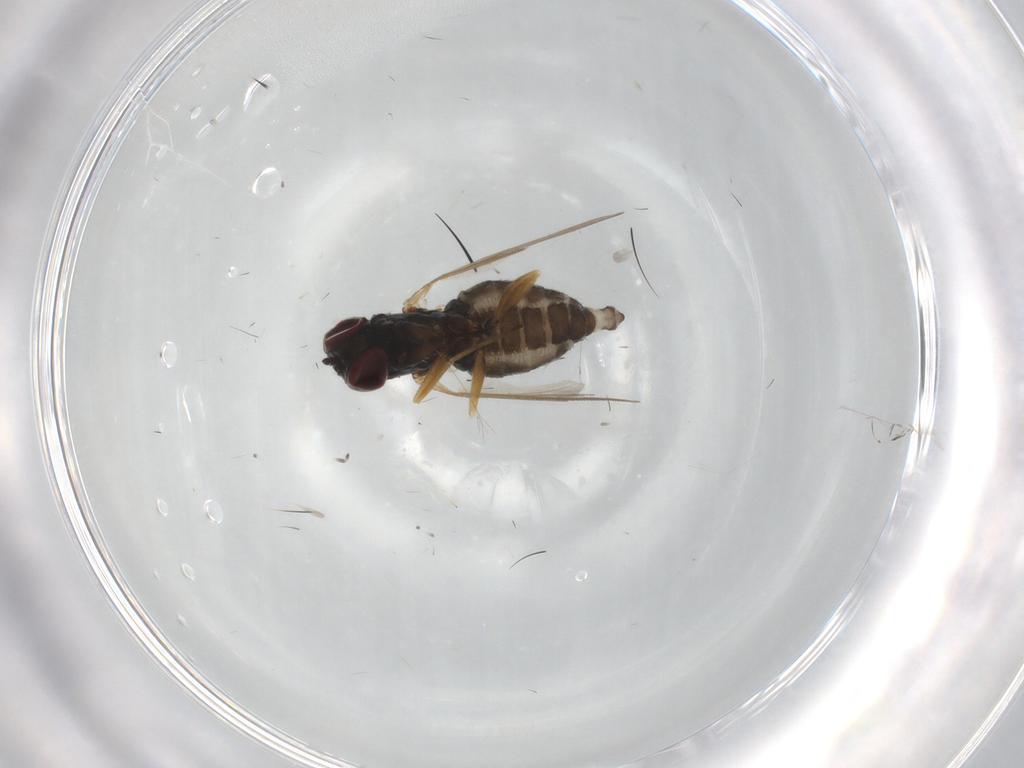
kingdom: Animalia
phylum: Arthropoda
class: Insecta
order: Diptera
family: Dolichopodidae
